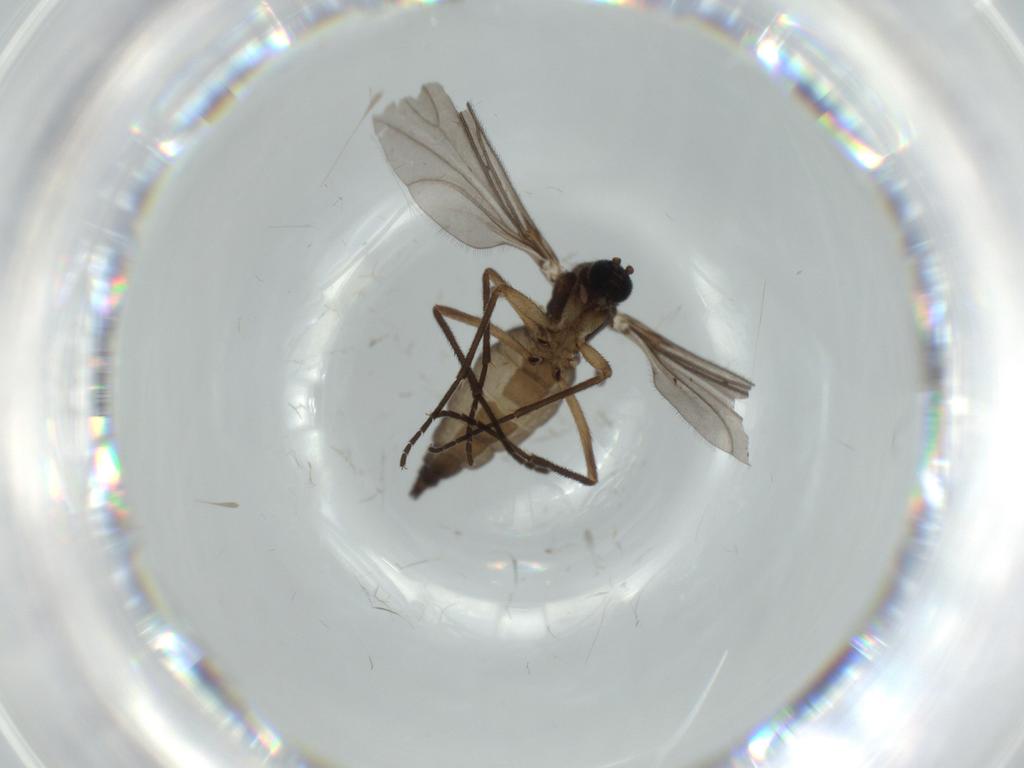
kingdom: Animalia
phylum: Arthropoda
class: Insecta
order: Diptera
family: Sciaridae
